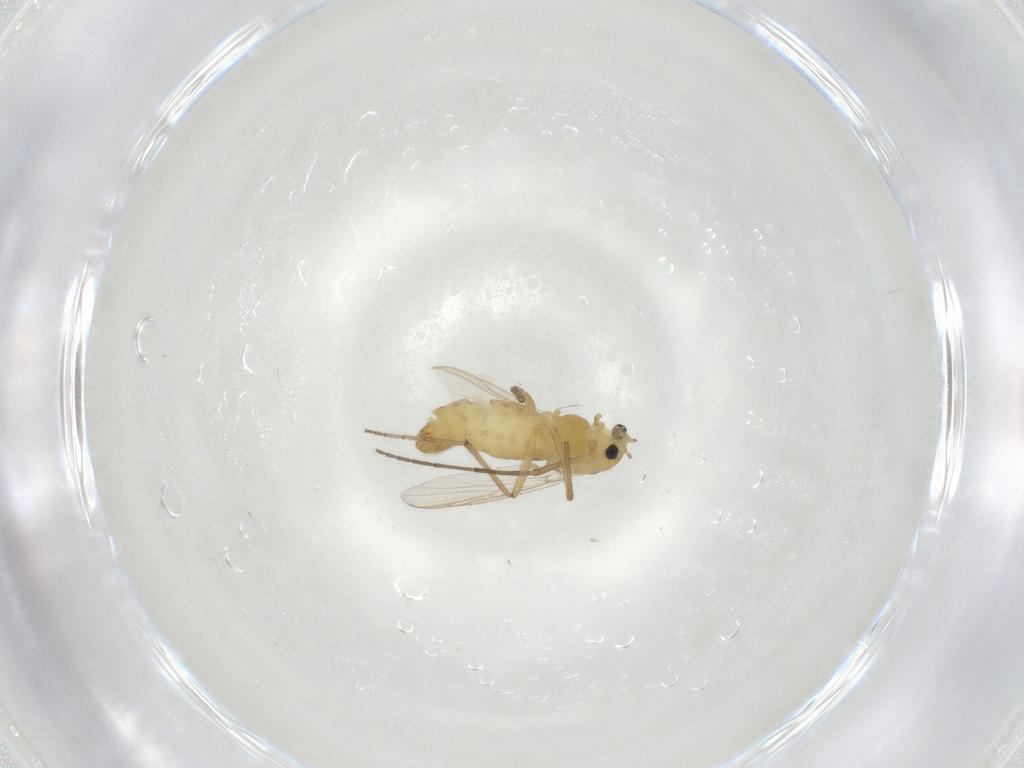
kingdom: Animalia
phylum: Arthropoda
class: Insecta
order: Diptera
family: Chironomidae
